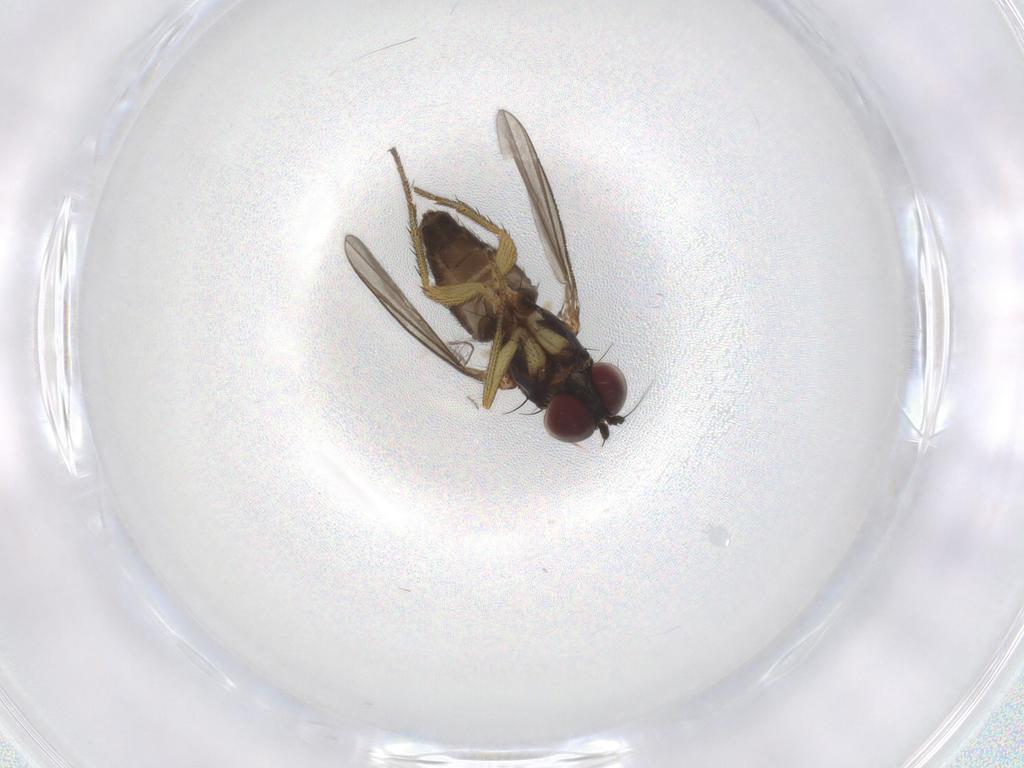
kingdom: Animalia
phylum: Arthropoda
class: Insecta
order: Diptera
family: Chironomidae
